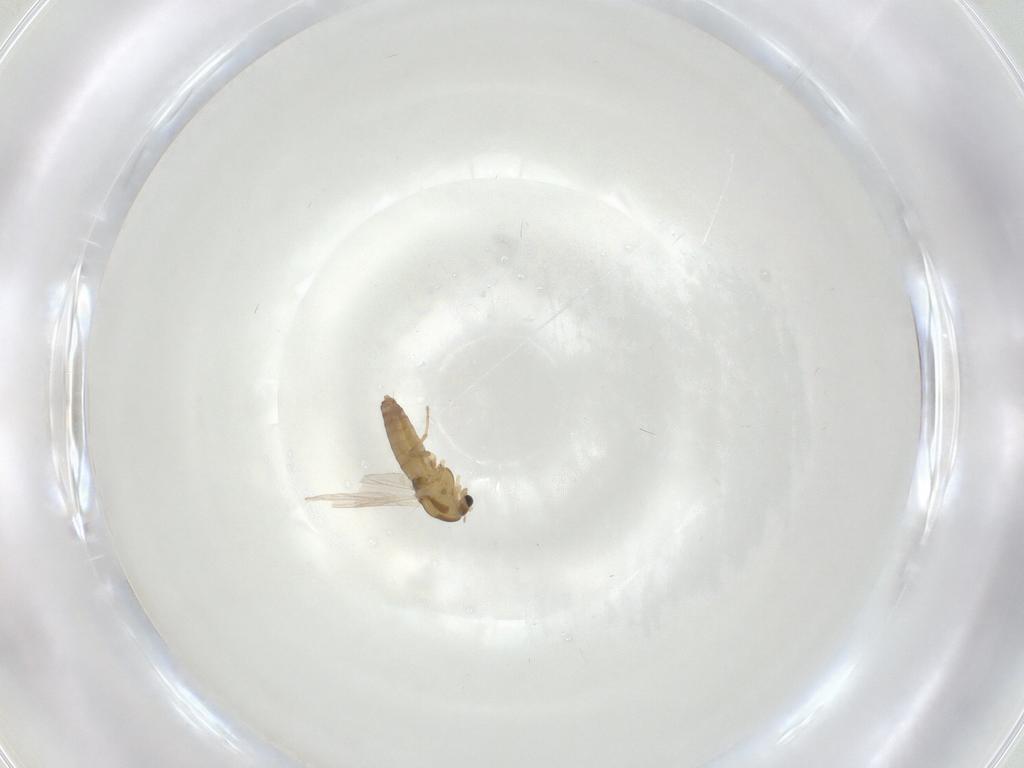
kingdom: Animalia
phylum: Arthropoda
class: Insecta
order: Diptera
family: Chironomidae
